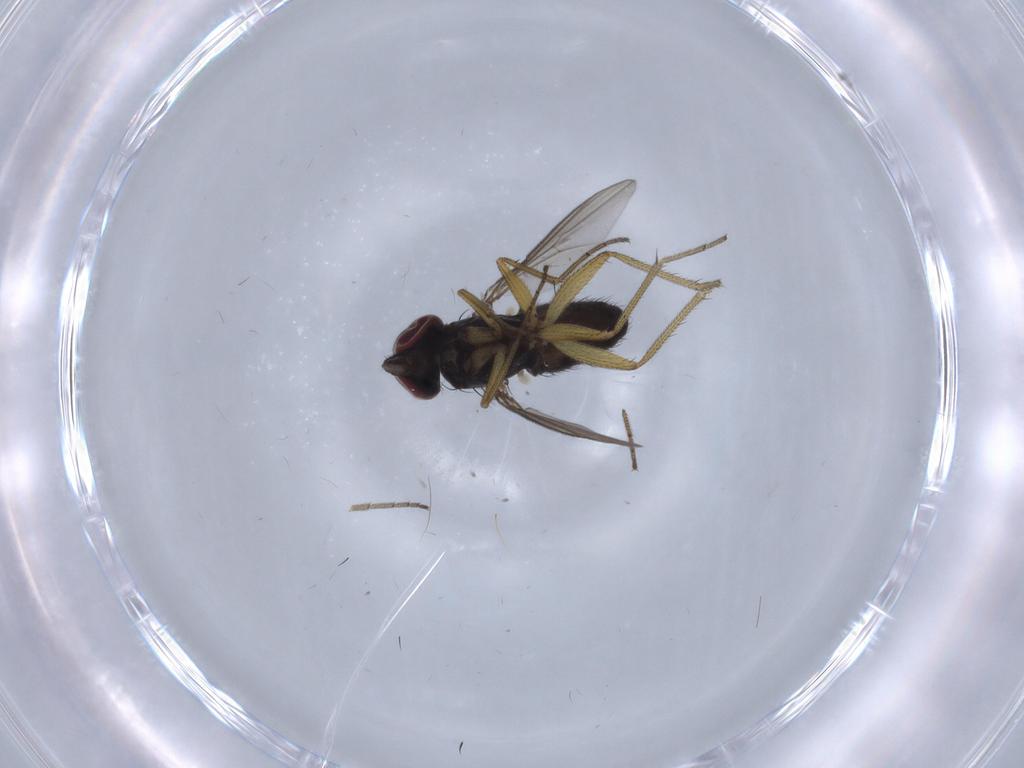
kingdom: Animalia
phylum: Arthropoda
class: Insecta
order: Diptera
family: Dolichopodidae
